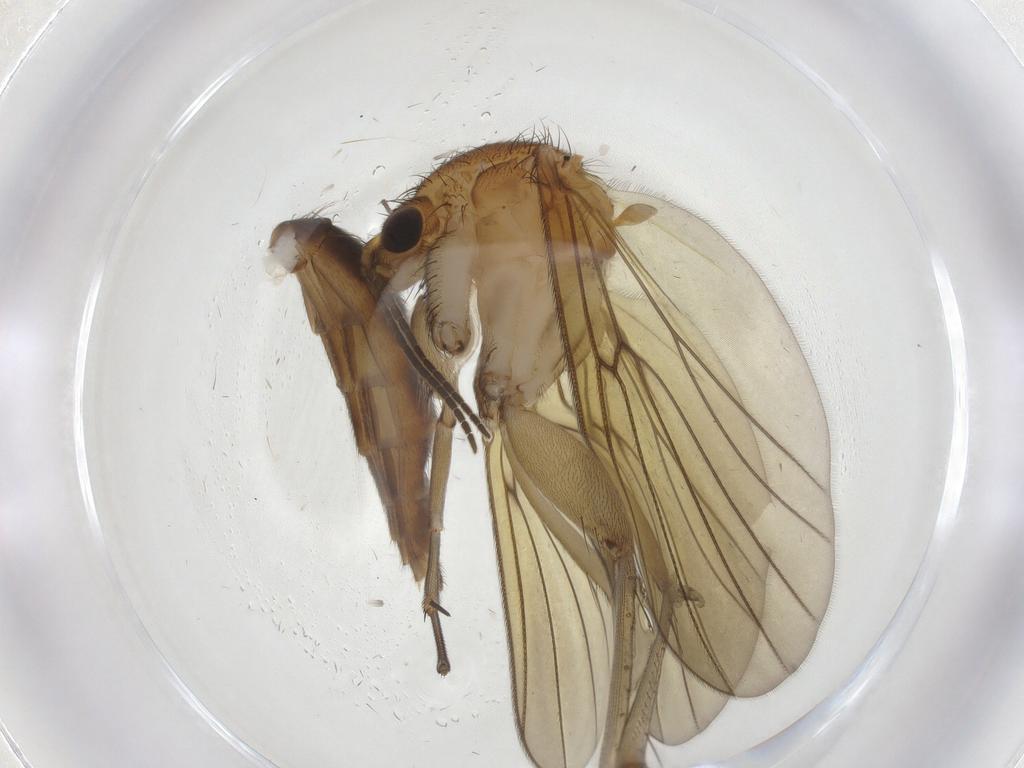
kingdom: Animalia
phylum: Arthropoda
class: Insecta
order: Diptera
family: Mycetophilidae
